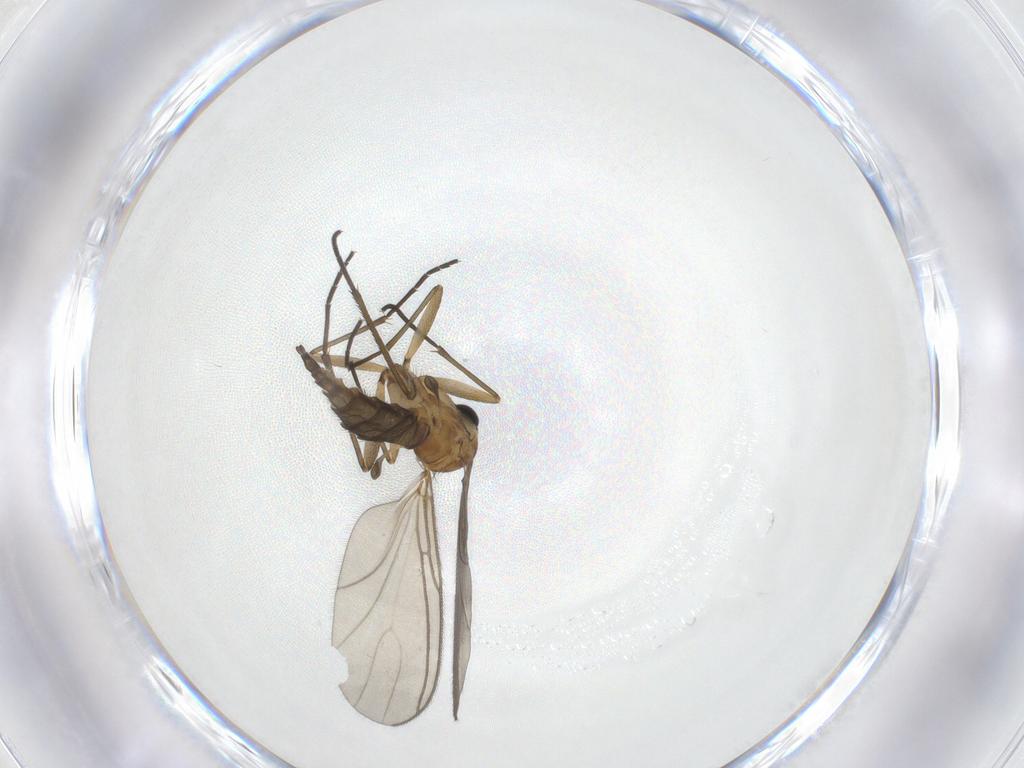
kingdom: Animalia
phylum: Arthropoda
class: Insecta
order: Diptera
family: Sciaridae
